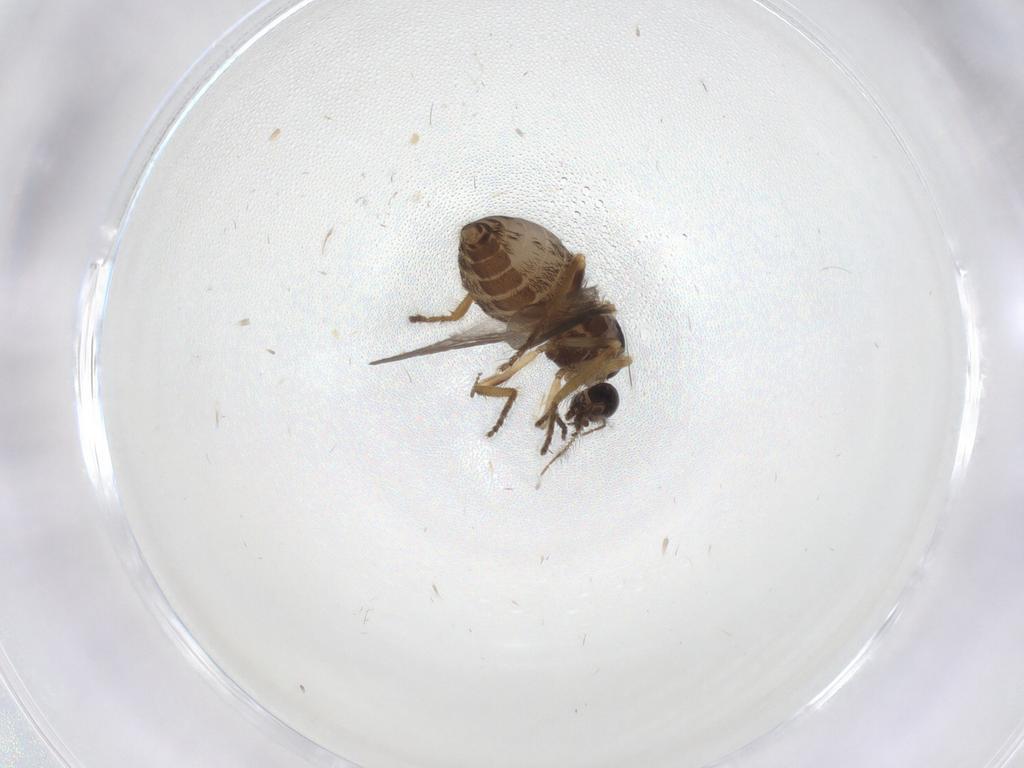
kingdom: Animalia
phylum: Arthropoda
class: Insecta
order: Diptera
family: Ceratopogonidae
